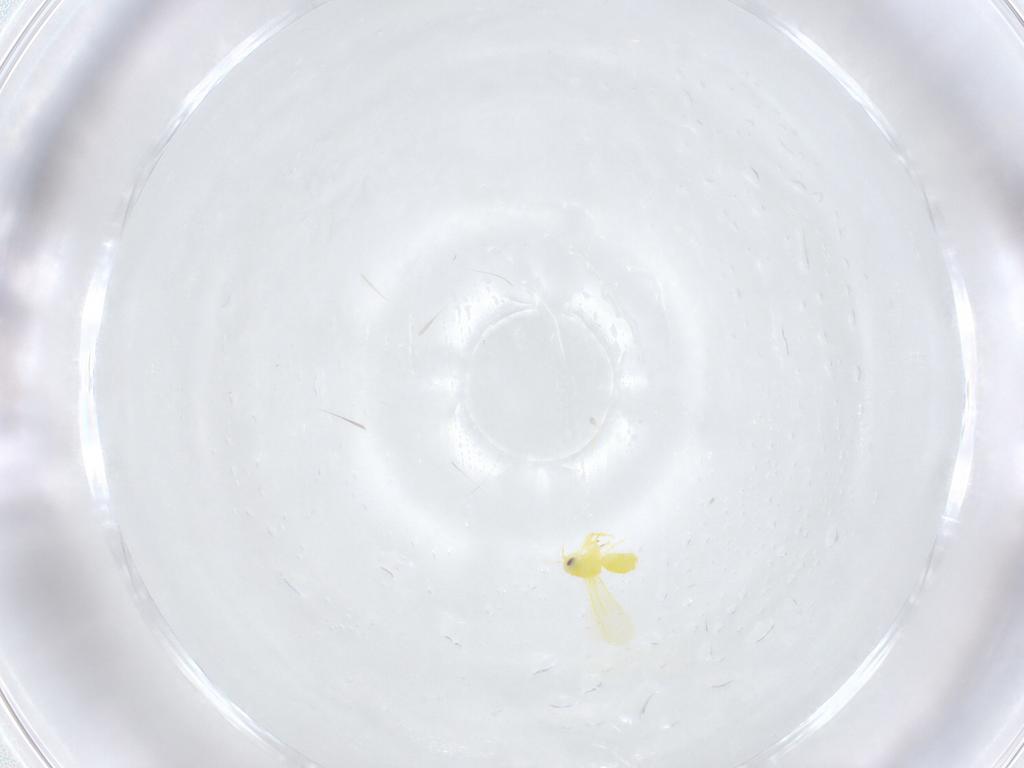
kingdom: Animalia
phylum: Arthropoda
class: Insecta
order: Hemiptera
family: Aleyrodidae
